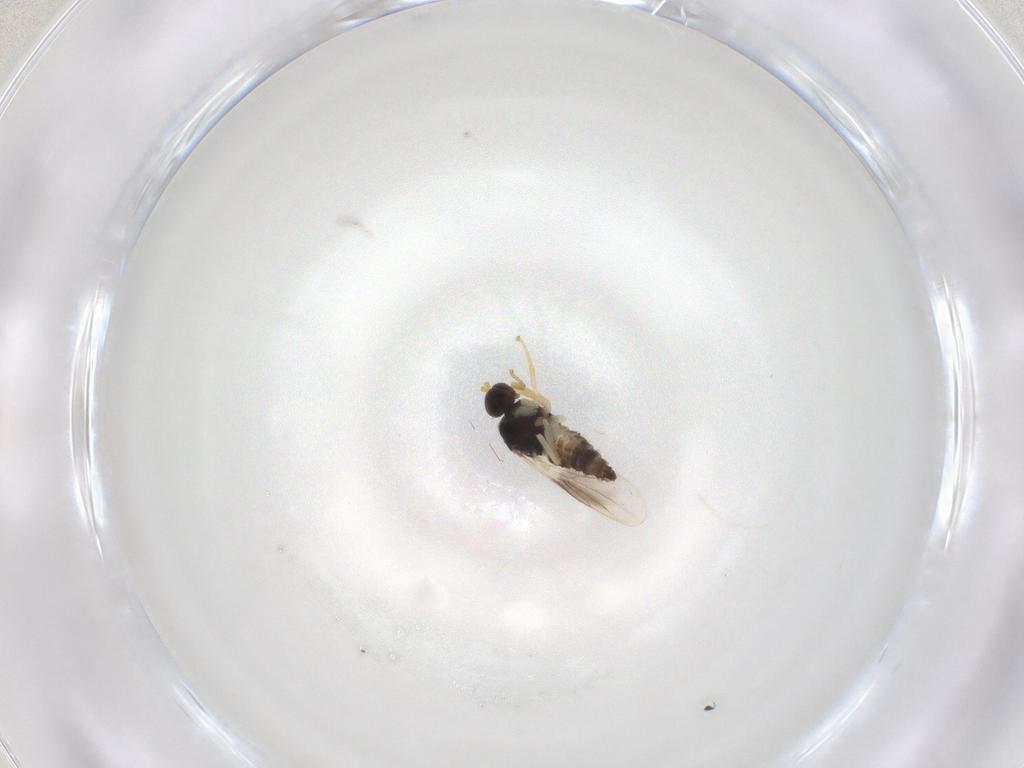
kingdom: Animalia
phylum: Arthropoda
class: Insecta
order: Diptera
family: Hybotidae
